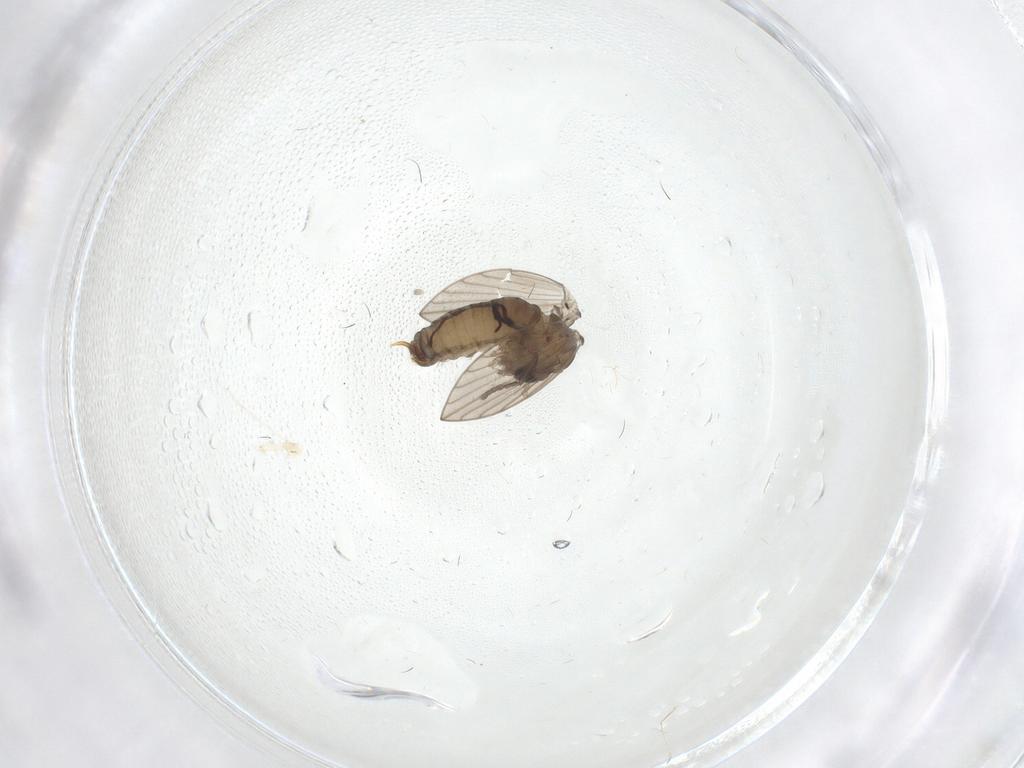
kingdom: Animalia
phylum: Arthropoda
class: Insecta
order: Diptera
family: Psychodidae
